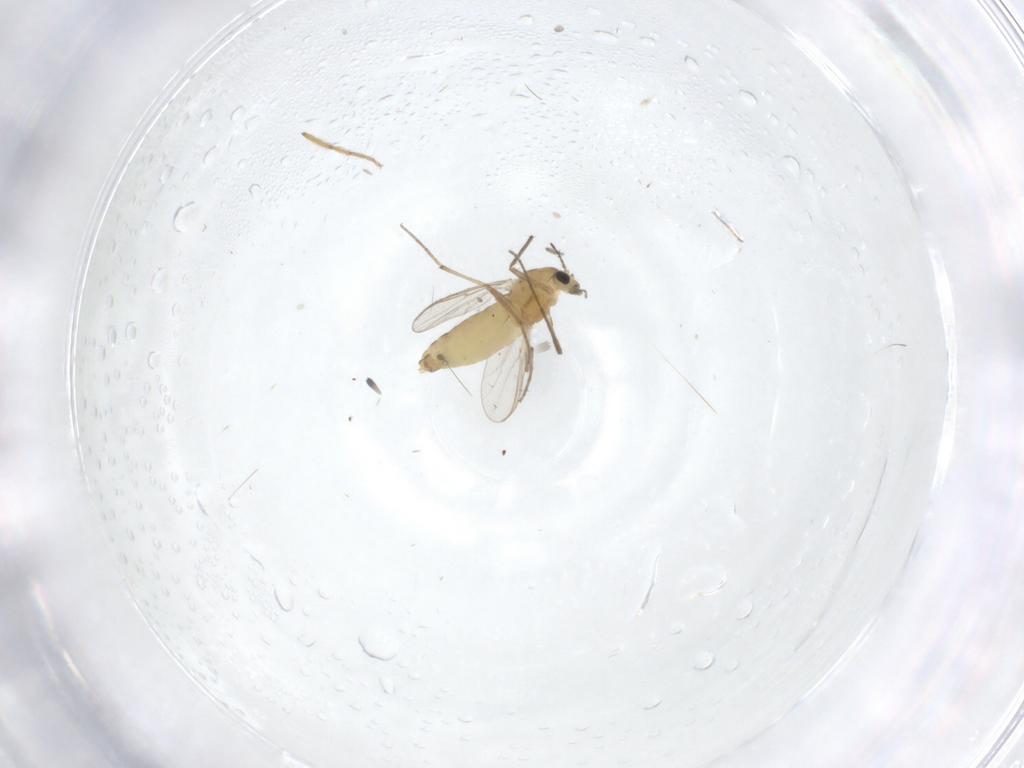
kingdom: Animalia
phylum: Arthropoda
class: Insecta
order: Diptera
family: Chironomidae
